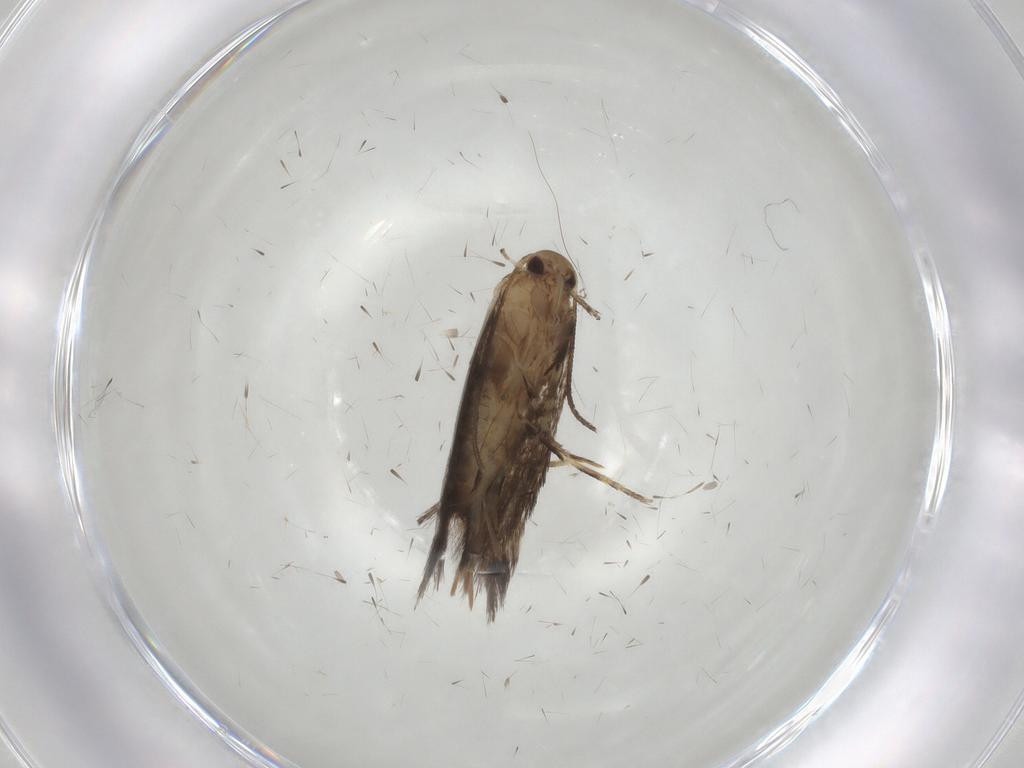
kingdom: Animalia
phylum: Arthropoda
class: Insecta
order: Lepidoptera
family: Elachistidae
